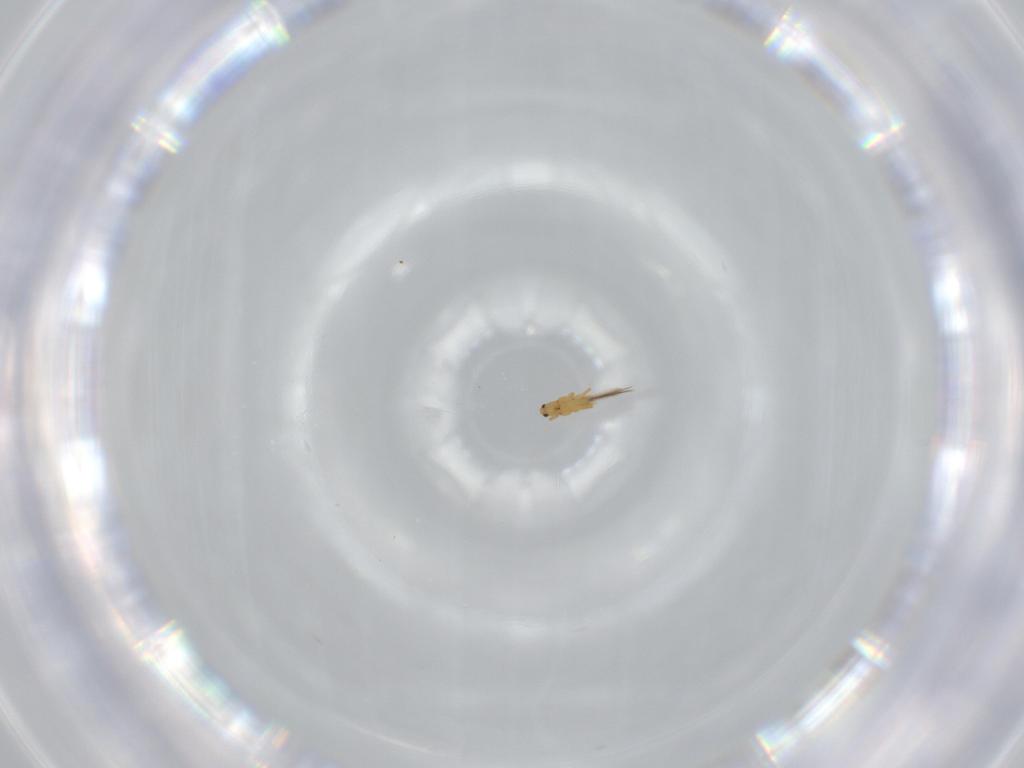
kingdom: Animalia
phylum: Arthropoda
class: Insecta
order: Thysanoptera
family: Thripidae
